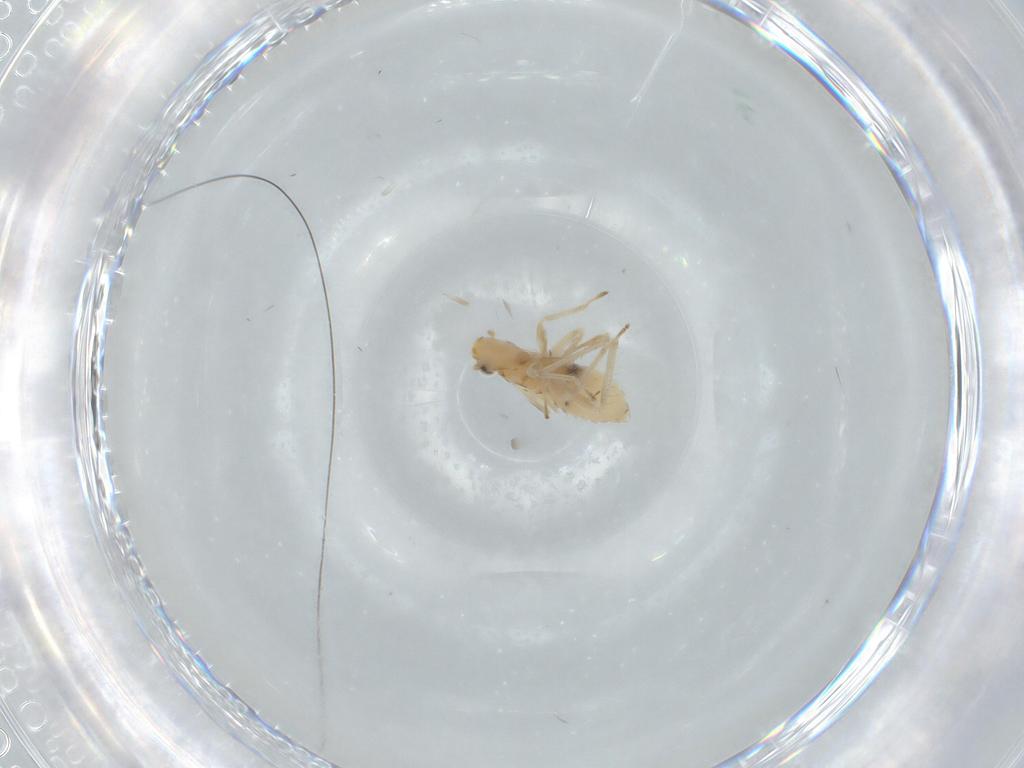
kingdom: Animalia
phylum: Arthropoda
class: Insecta
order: Hemiptera
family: Cicadellidae
